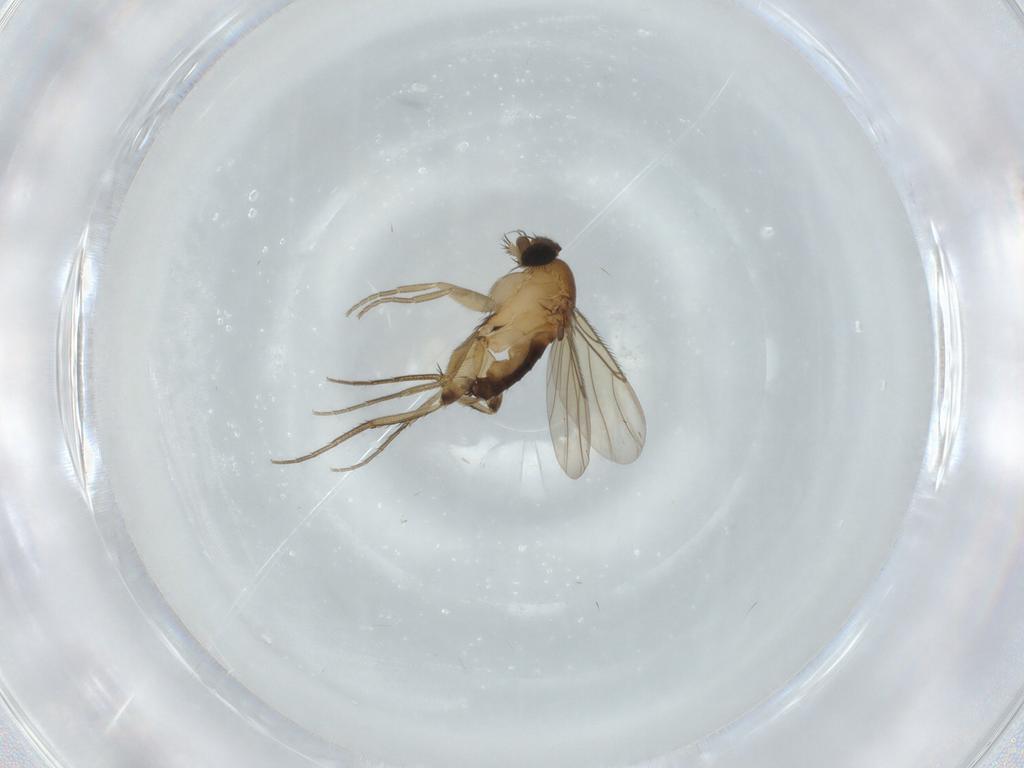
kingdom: Animalia
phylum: Arthropoda
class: Insecta
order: Diptera
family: Phoridae
